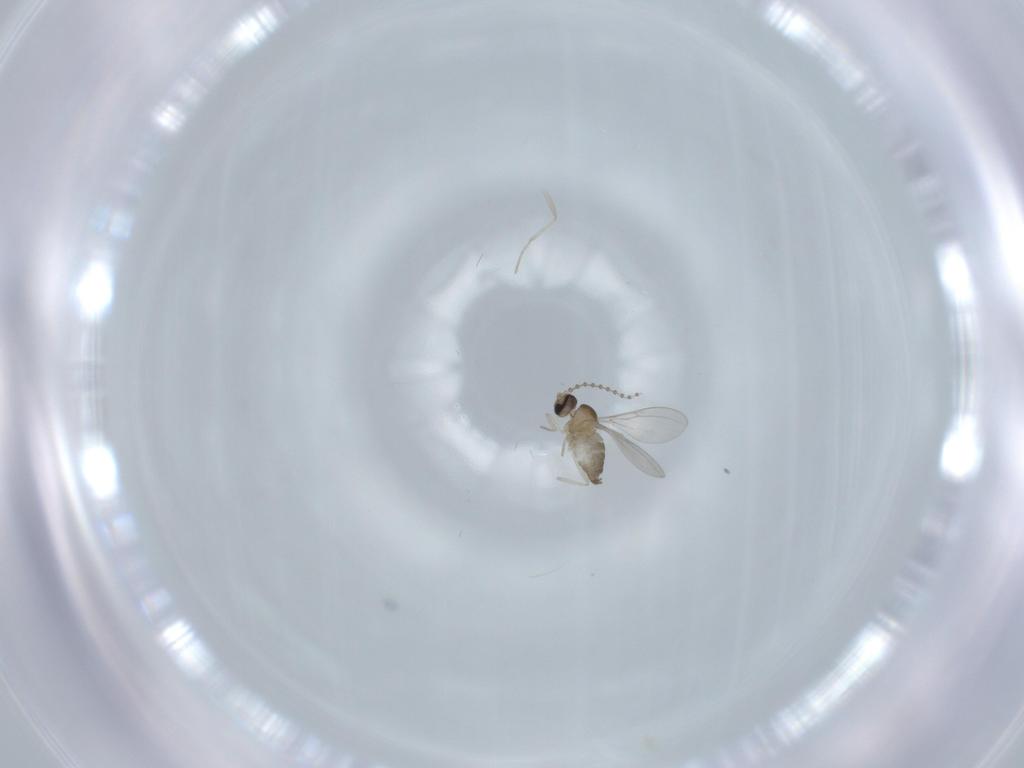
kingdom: Animalia
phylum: Arthropoda
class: Insecta
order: Diptera
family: Cecidomyiidae
